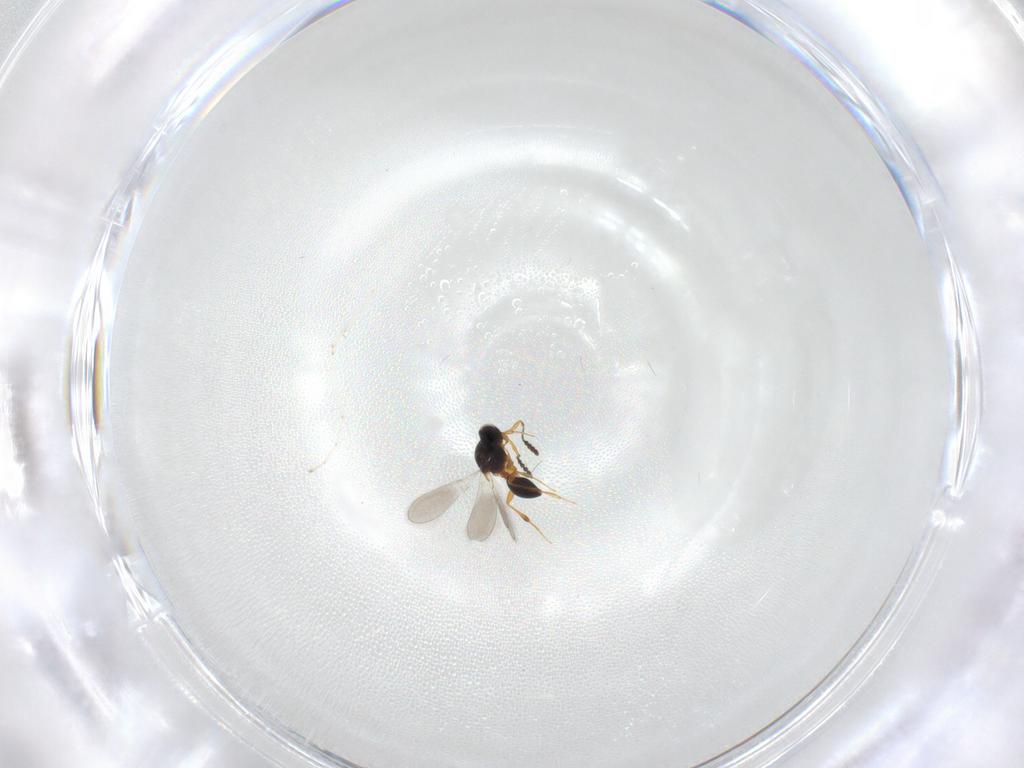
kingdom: Animalia
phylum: Arthropoda
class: Insecta
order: Hymenoptera
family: Platygastridae
